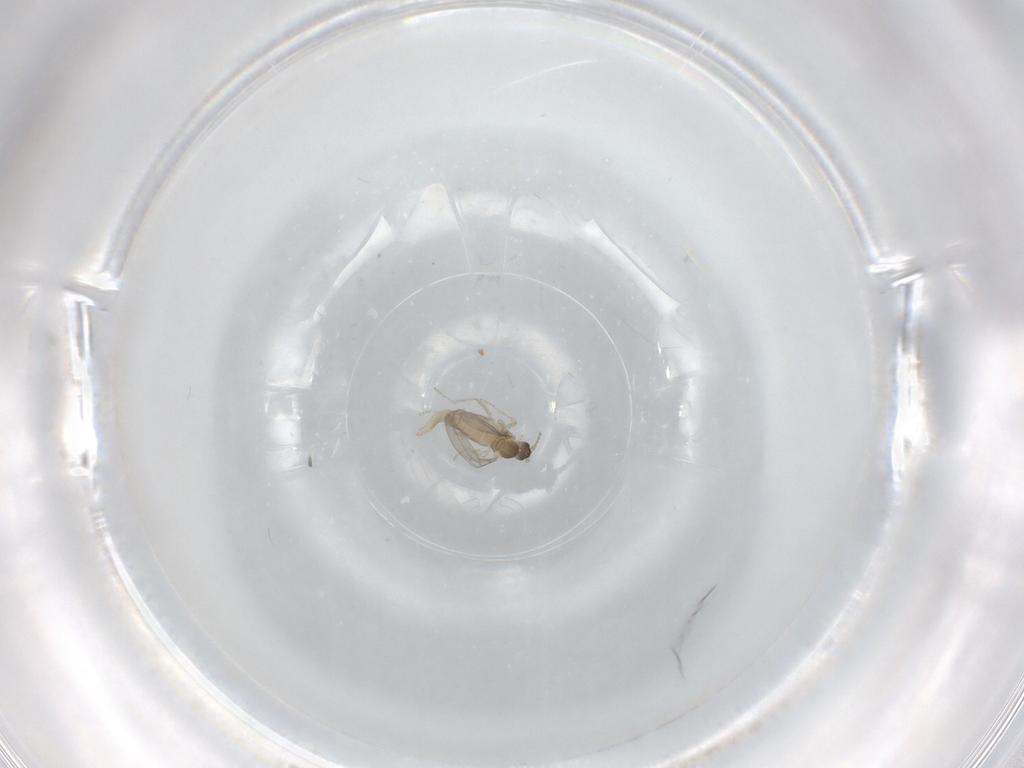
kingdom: Animalia
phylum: Arthropoda
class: Insecta
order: Diptera
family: Cecidomyiidae
